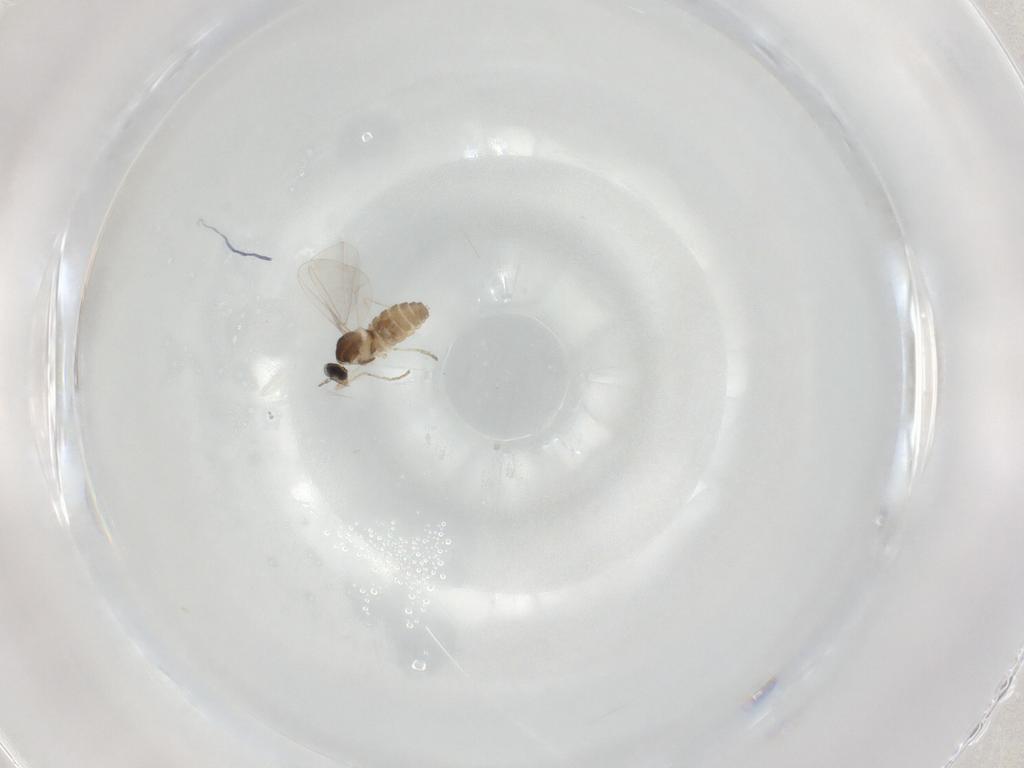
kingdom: Animalia
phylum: Arthropoda
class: Insecta
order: Diptera
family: Cecidomyiidae
